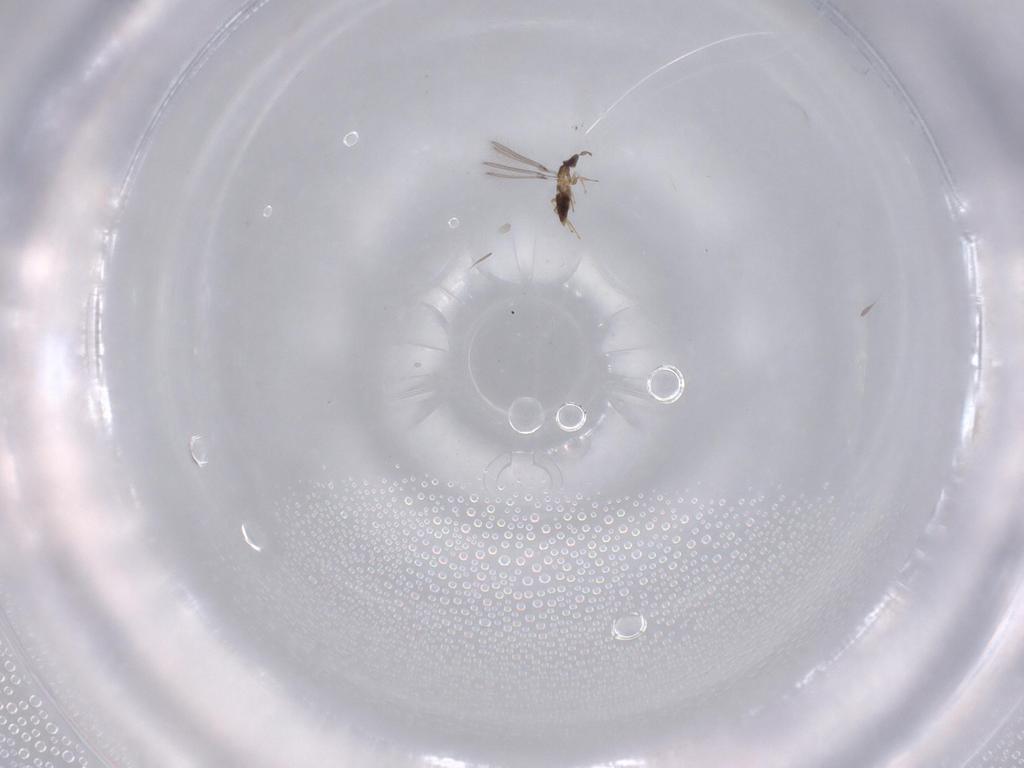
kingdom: Animalia
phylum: Arthropoda
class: Insecta
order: Hymenoptera
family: Mymaridae
